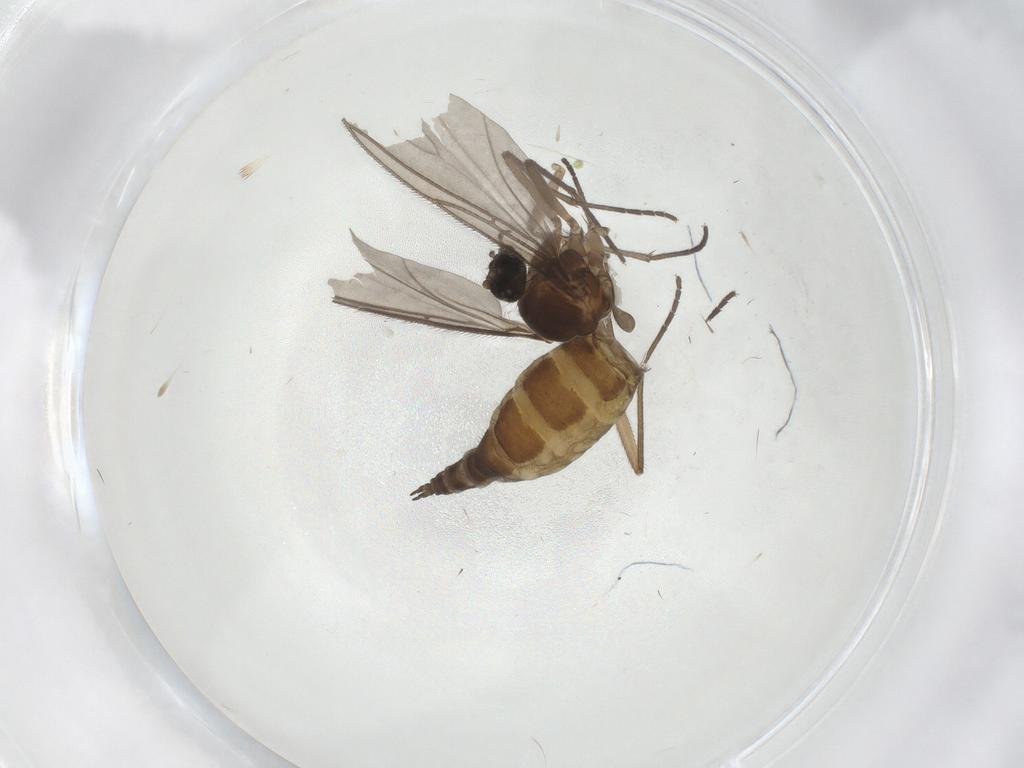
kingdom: Animalia
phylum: Arthropoda
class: Insecta
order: Diptera
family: Sciaridae
